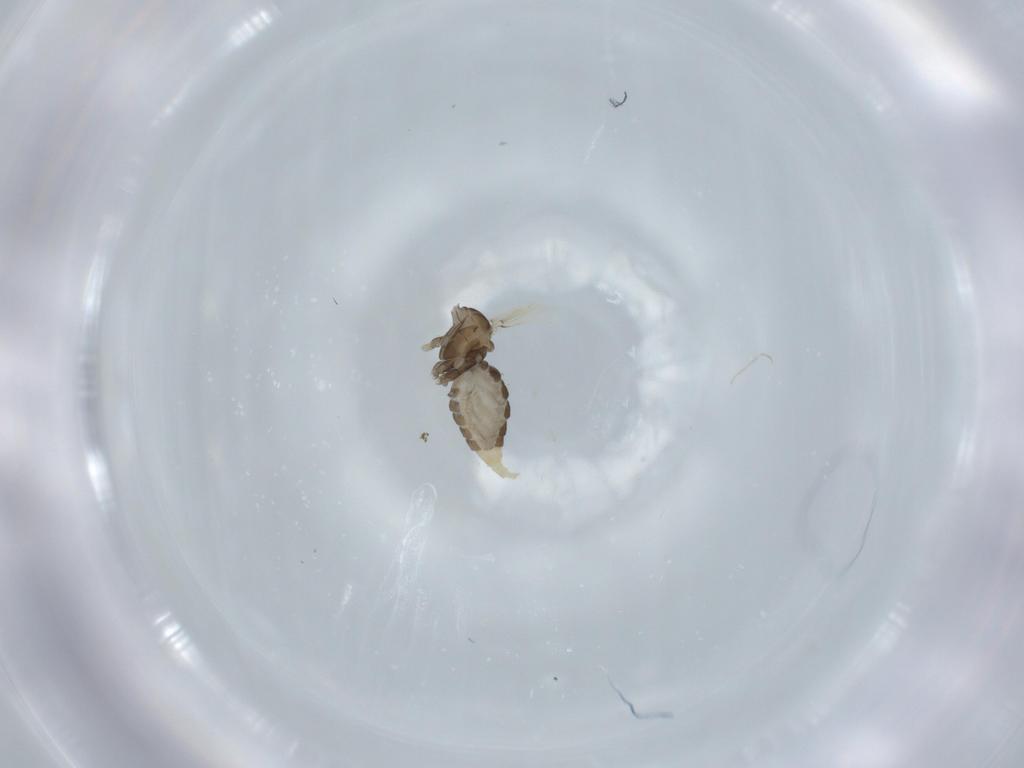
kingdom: Animalia
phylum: Arthropoda
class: Insecta
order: Diptera
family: Cecidomyiidae
